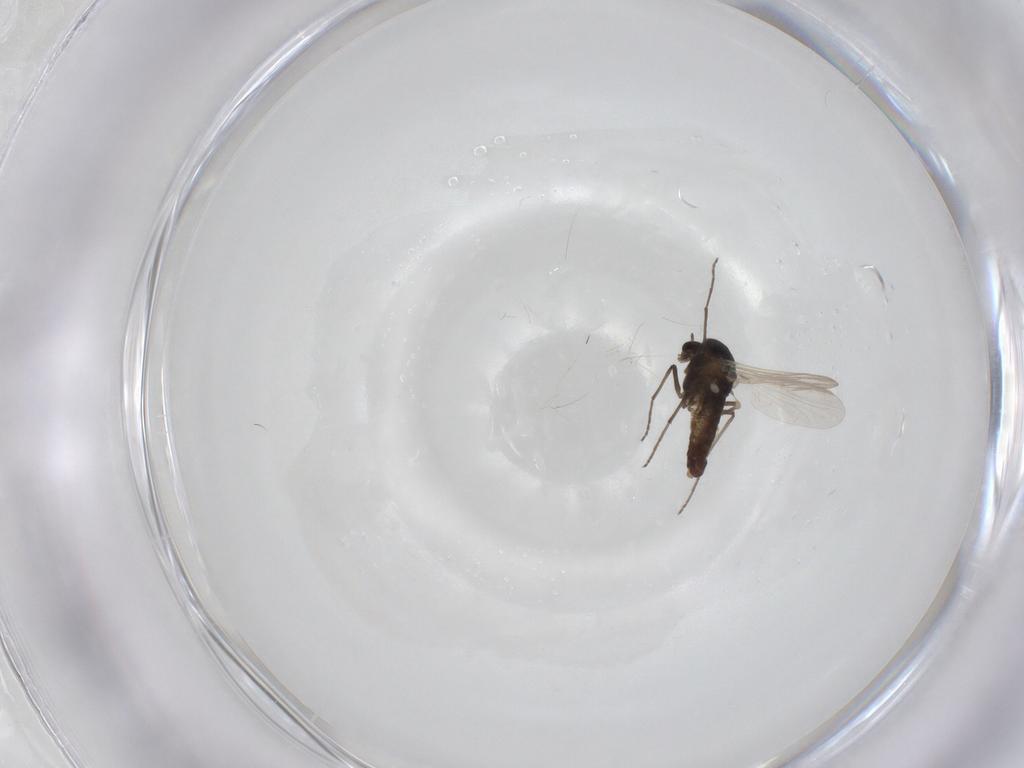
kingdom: Animalia
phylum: Arthropoda
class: Insecta
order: Diptera
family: Chironomidae
